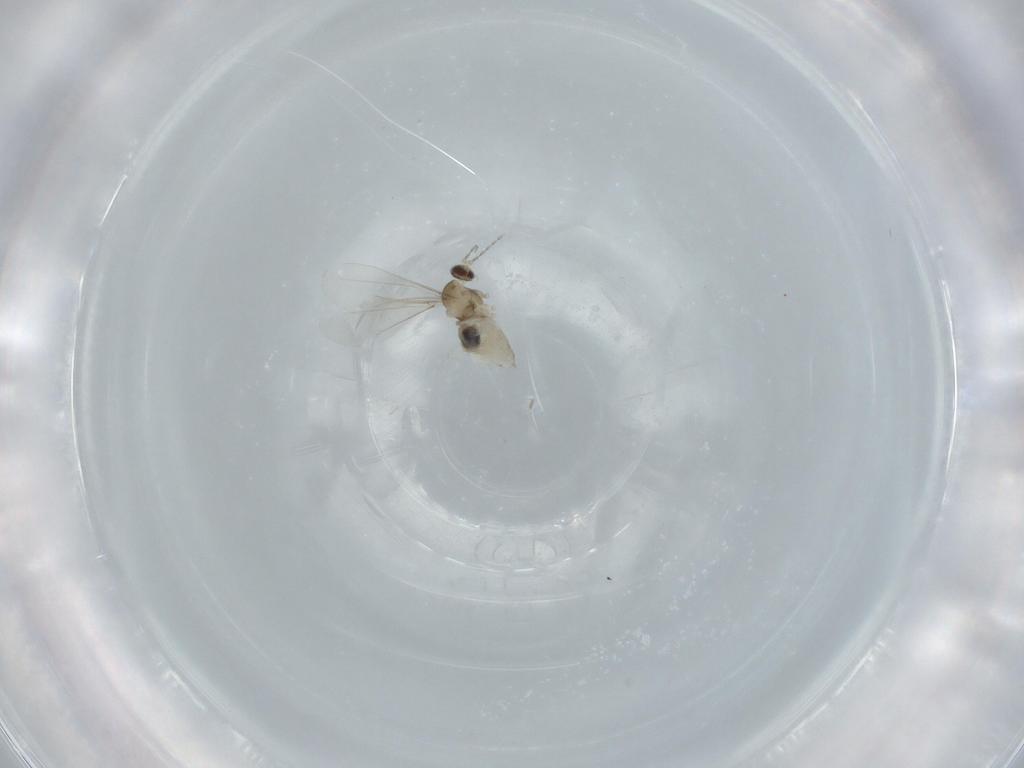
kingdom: Animalia
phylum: Arthropoda
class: Insecta
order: Diptera
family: Cecidomyiidae
